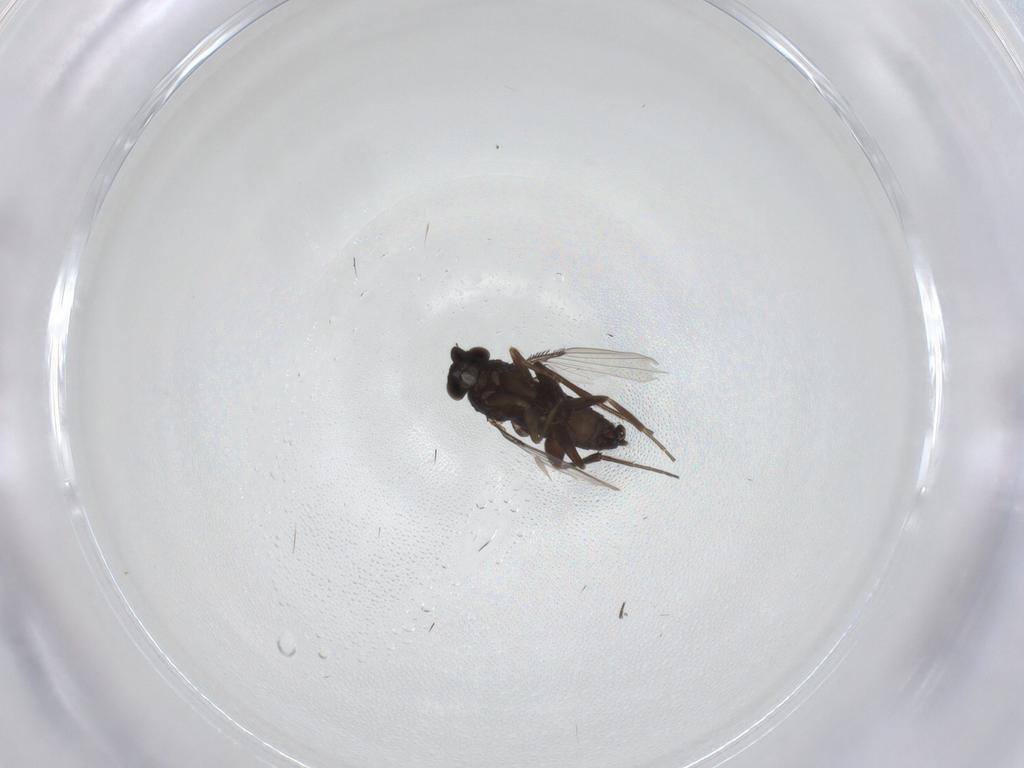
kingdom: Animalia
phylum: Arthropoda
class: Insecta
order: Diptera
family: Phoridae
